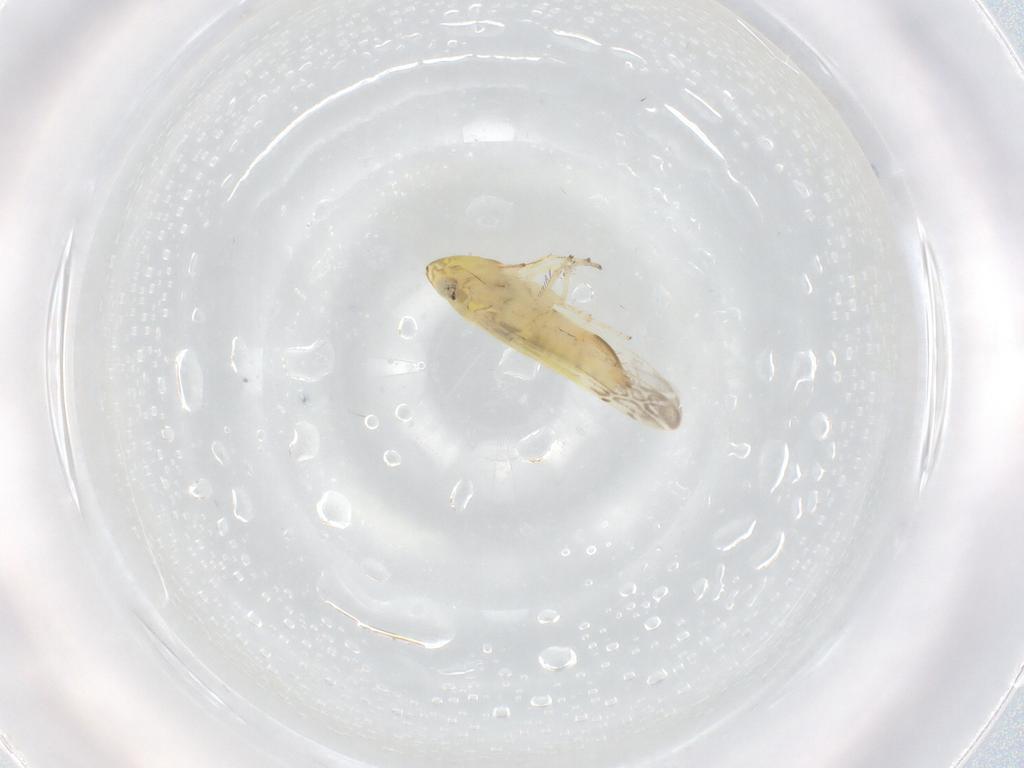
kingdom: Animalia
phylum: Arthropoda
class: Insecta
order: Hemiptera
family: Cicadellidae
